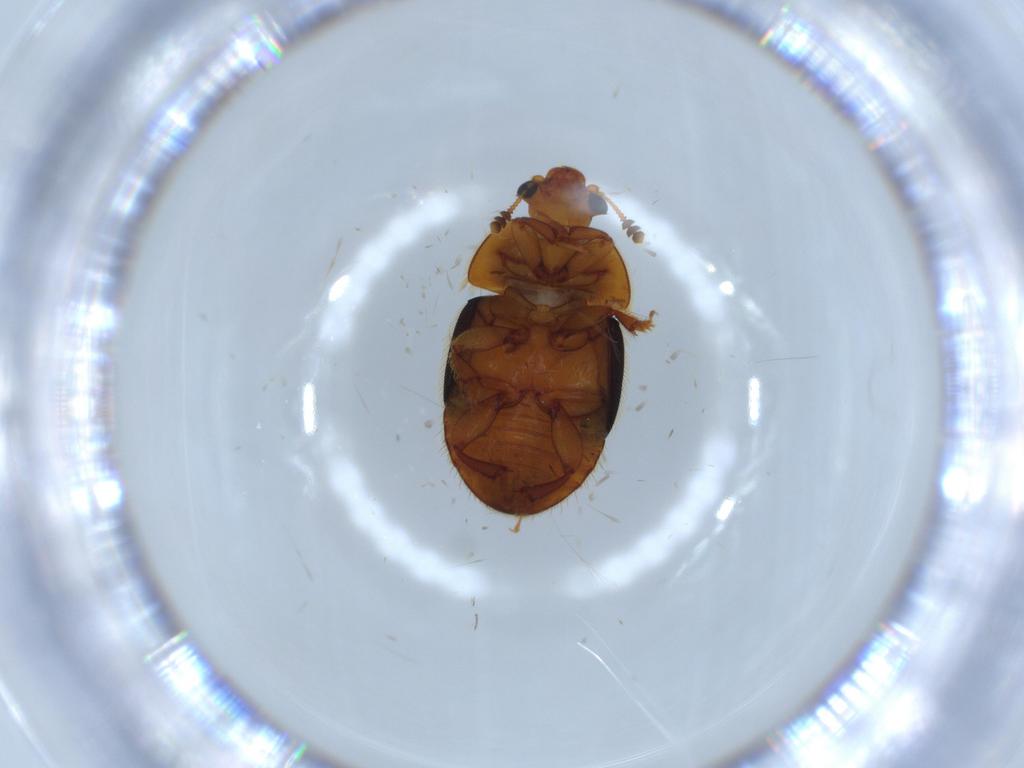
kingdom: Animalia
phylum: Arthropoda
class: Insecta
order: Coleoptera
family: Nitidulidae
